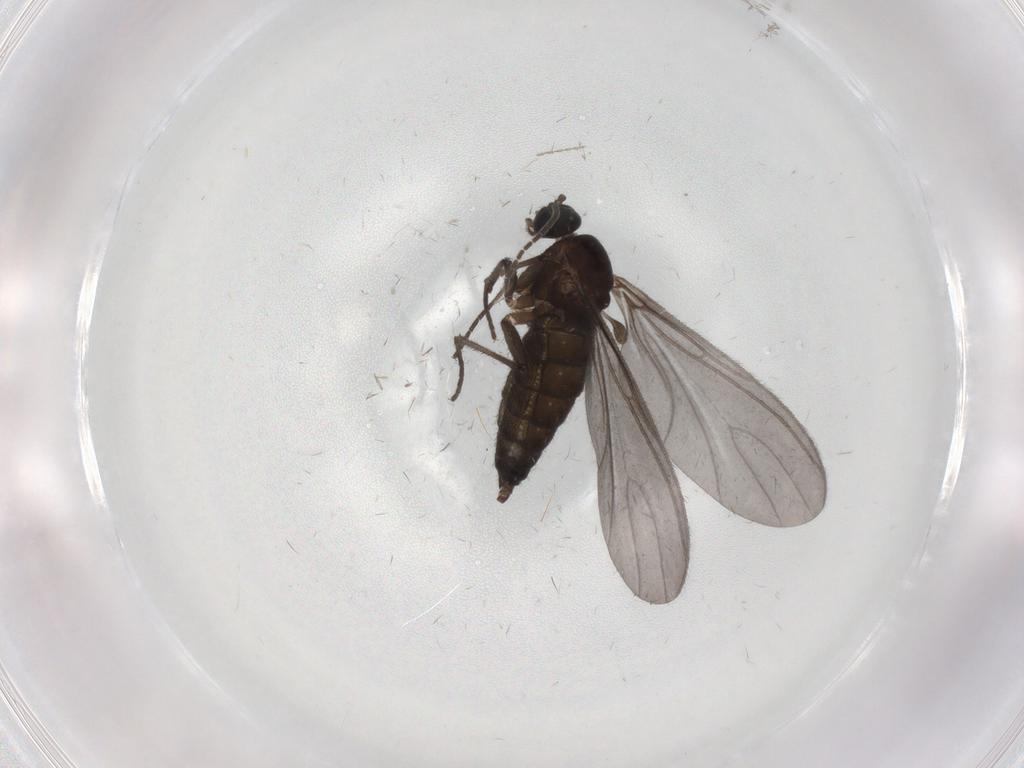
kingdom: Animalia
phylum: Arthropoda
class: Insecta
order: Diptera
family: Sciaridae
